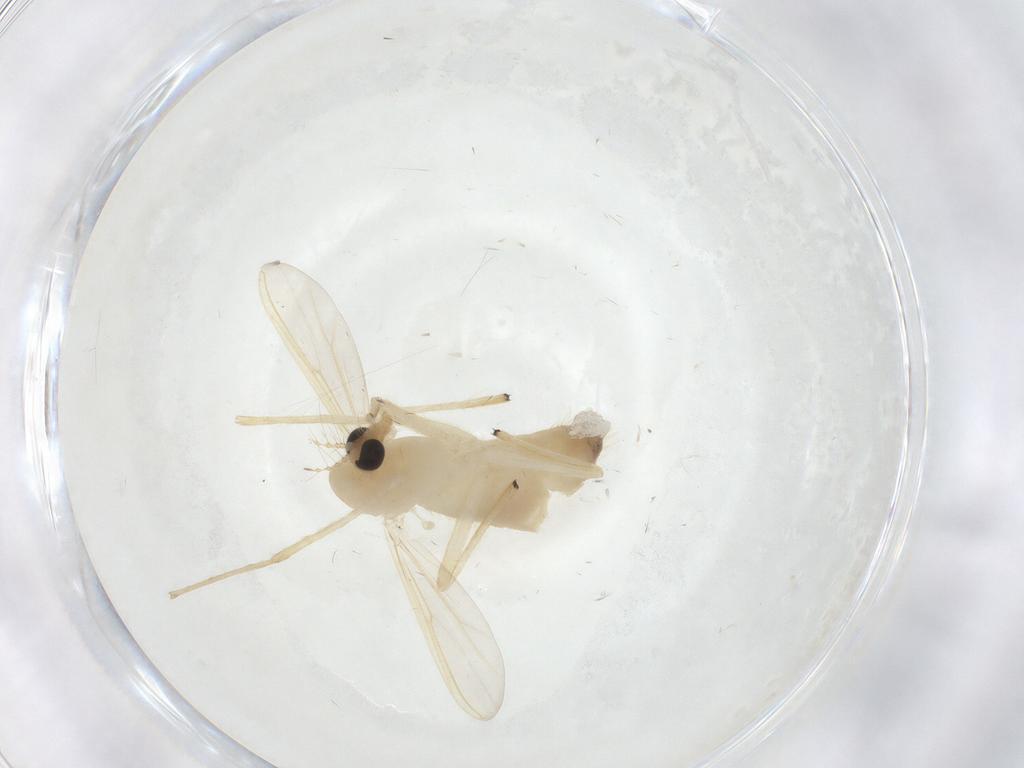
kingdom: Animalia
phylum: Arthropoda
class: Insecta
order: Diptera
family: Chironomidae
